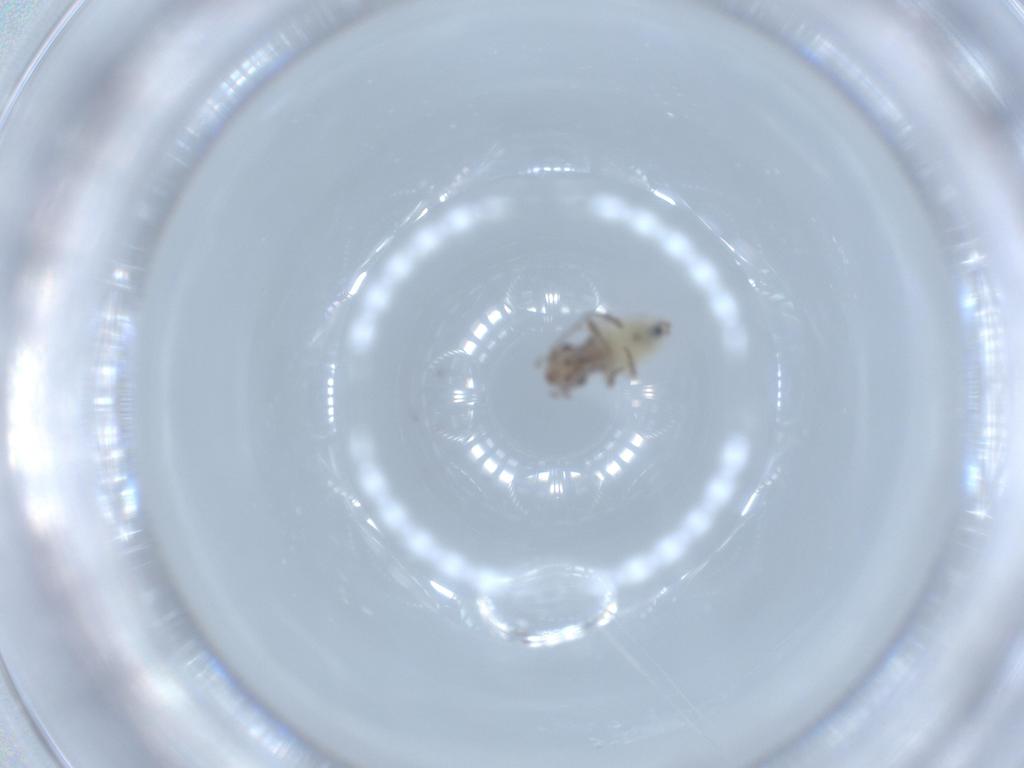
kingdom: Animalia
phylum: Arthropoda
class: Insecta
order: Psocodea
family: Lepidopsocidae
